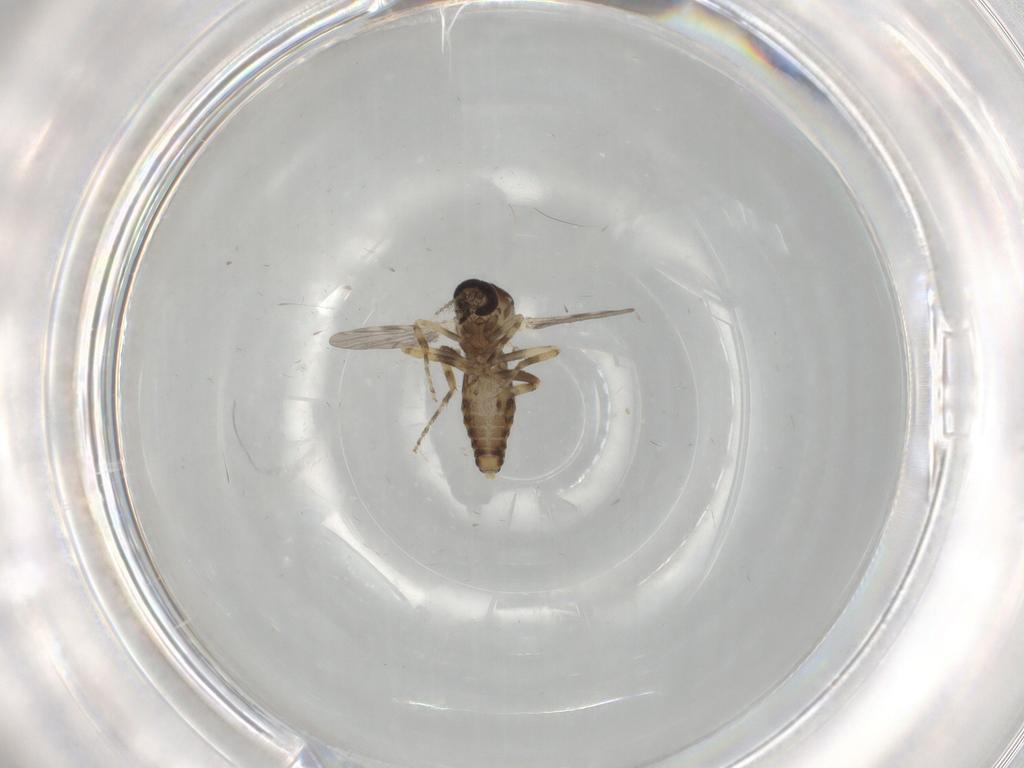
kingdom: Animalia
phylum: Arthropoda
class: Insecta
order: Diptera
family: Ceratopogonidae
